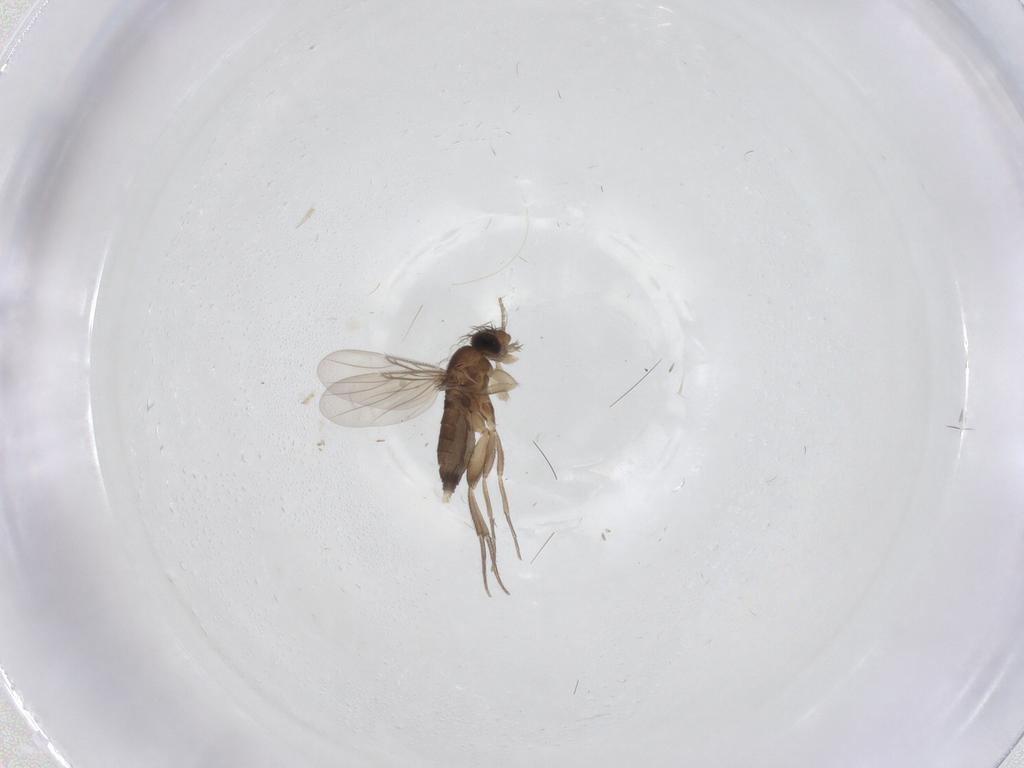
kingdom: Animalia
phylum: Arthropoda
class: Insecta
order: Diptera
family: Phoridae
